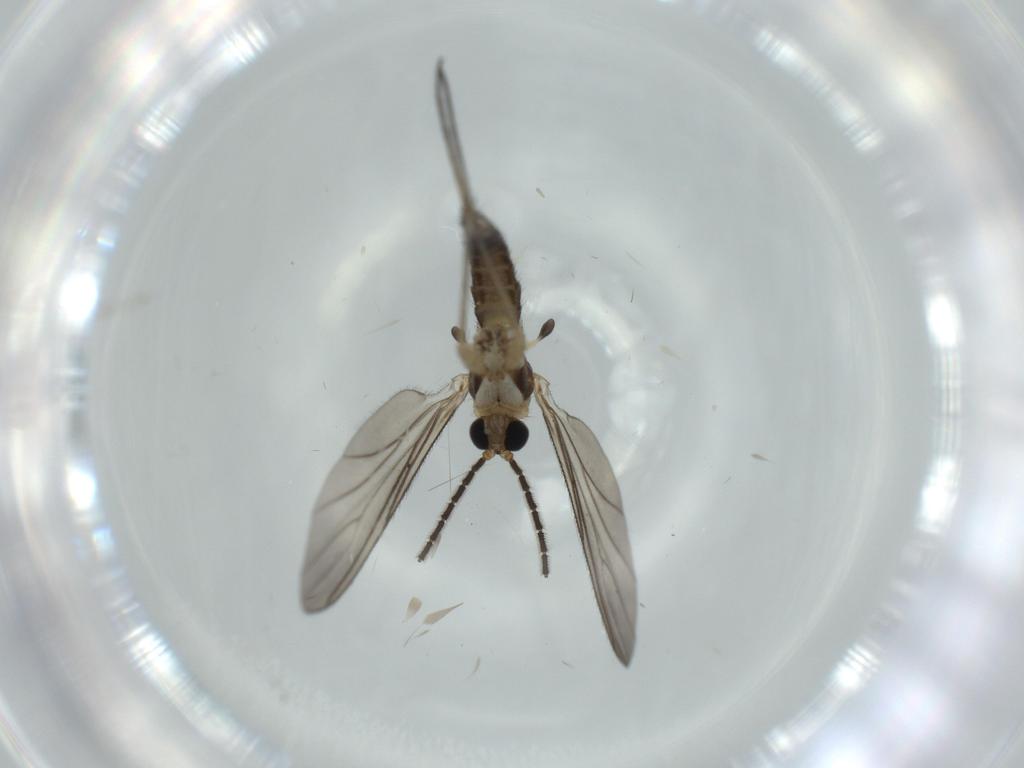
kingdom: Animalia
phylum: Arthropoda
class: Insecta
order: Diptera
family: Sciaridae
